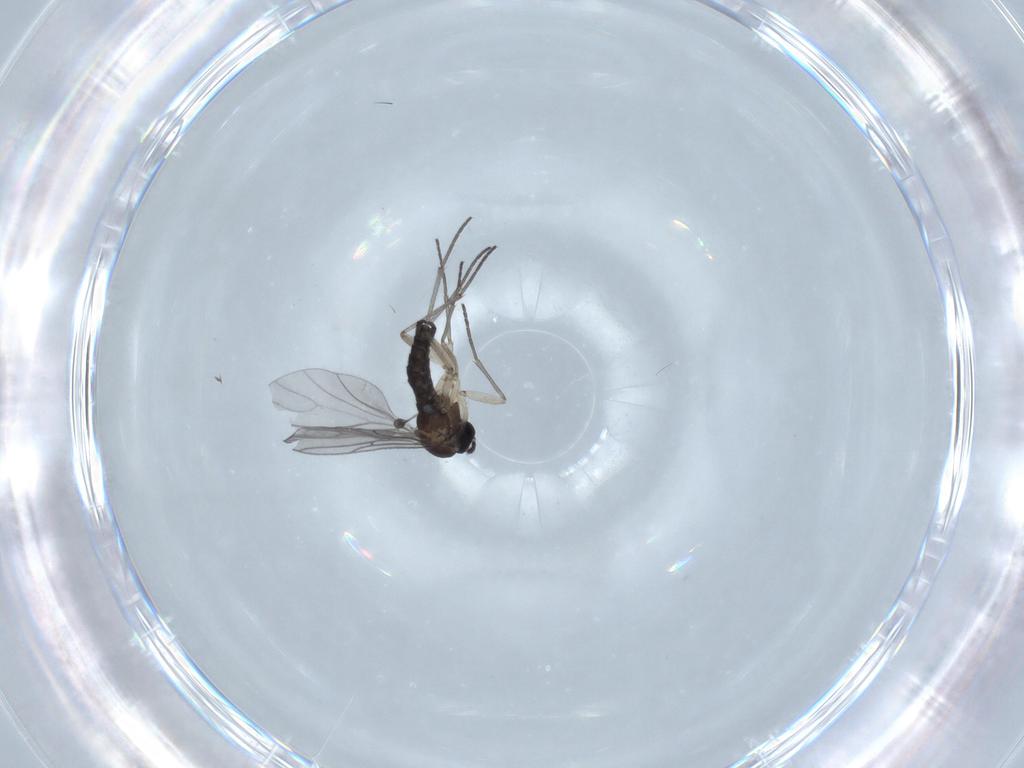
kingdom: Animalia
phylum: Arthropoda
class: Insecta
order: Diptera
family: Sciaridae
